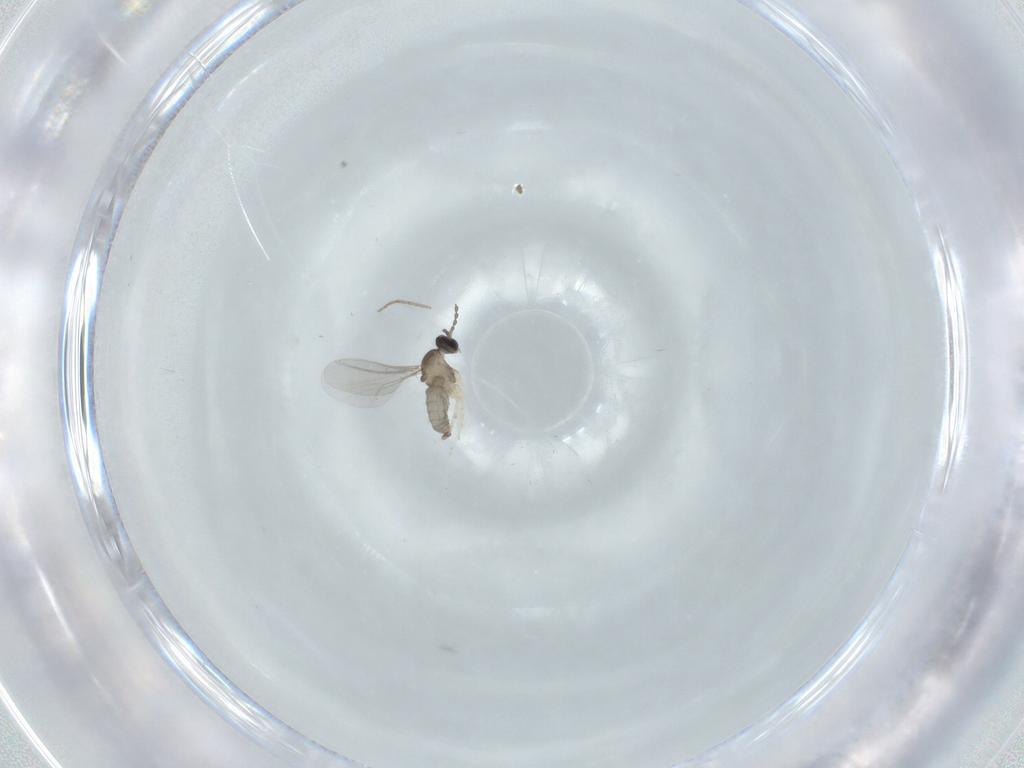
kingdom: Animalia
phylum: Arthropoda
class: Insecta
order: Diptera
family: Cecidomyiidae
